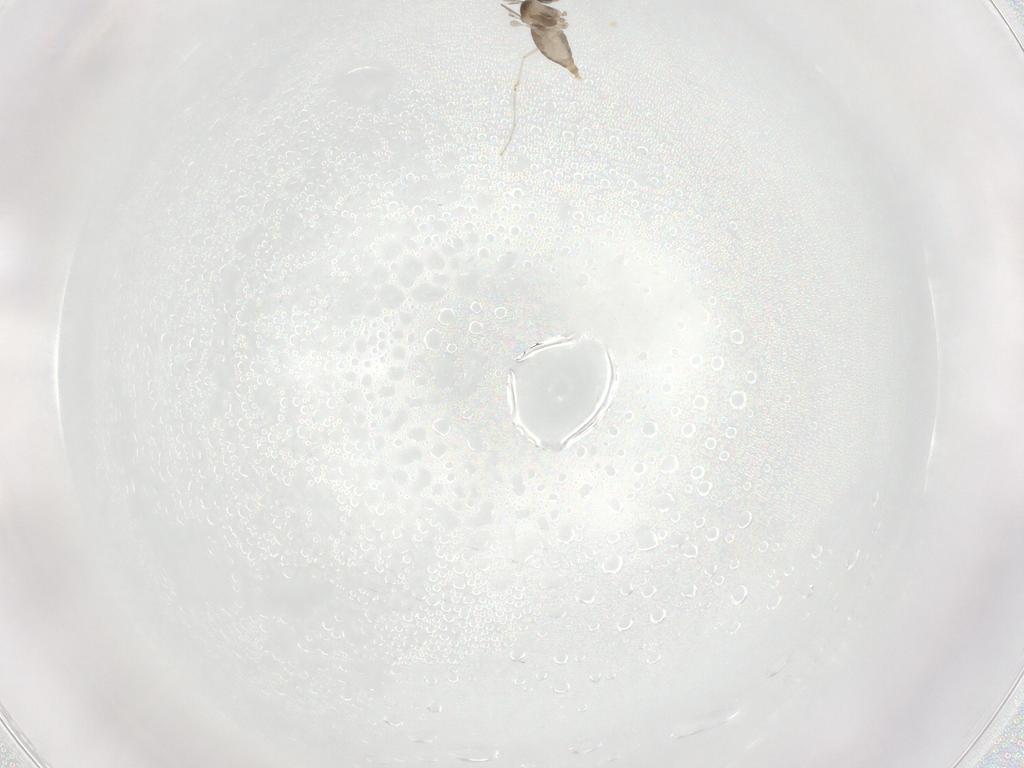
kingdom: Animalia
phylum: Arthropoda
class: Insecta
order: Diptera
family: Cecidomyiidae
